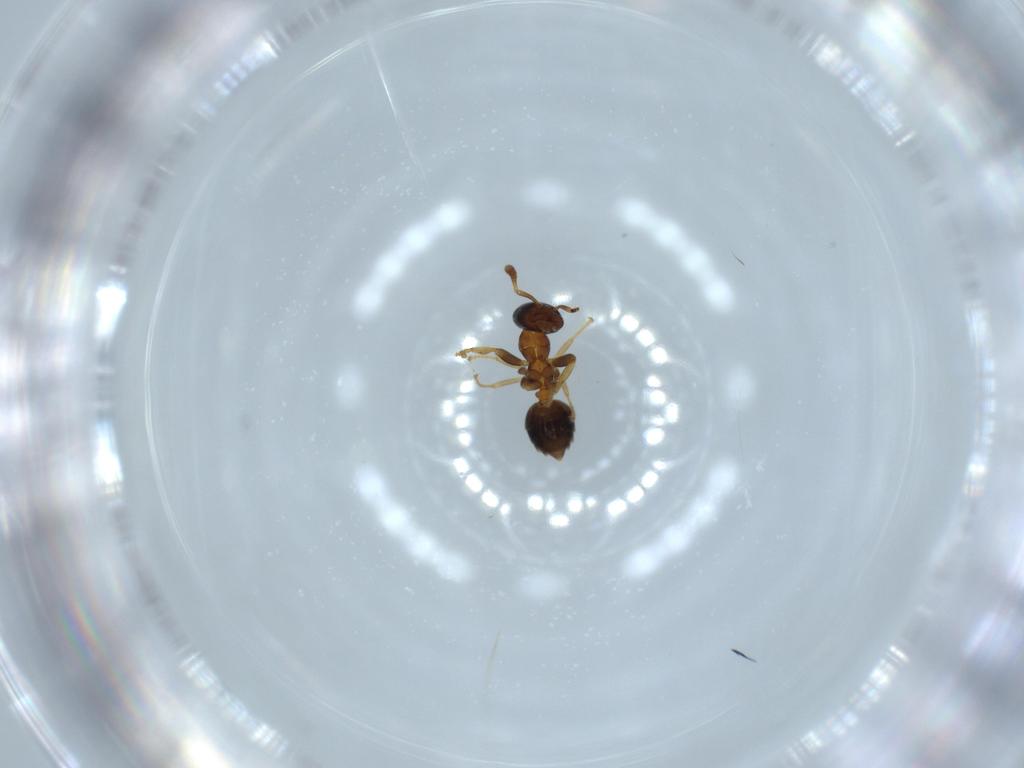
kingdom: Animalia
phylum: Arthropoda
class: Insecta
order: Hymenoptera
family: Formicidae
